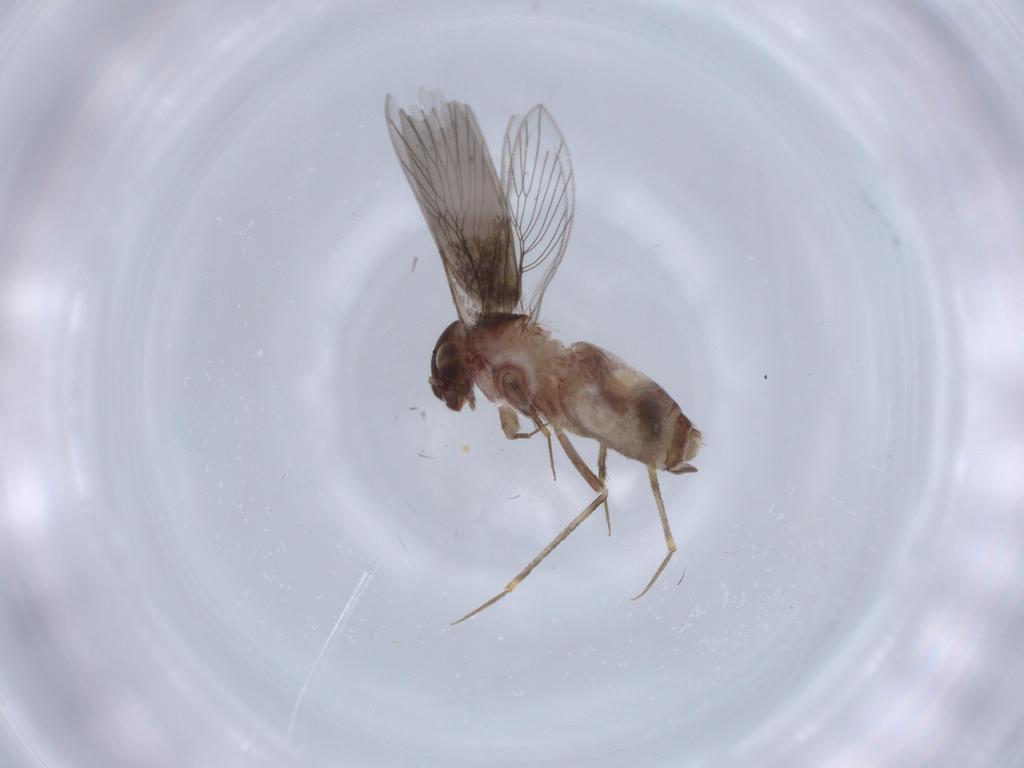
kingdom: Animalia
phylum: Arthropoda
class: Insecta
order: Psocodea
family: Lepidopsocidae
